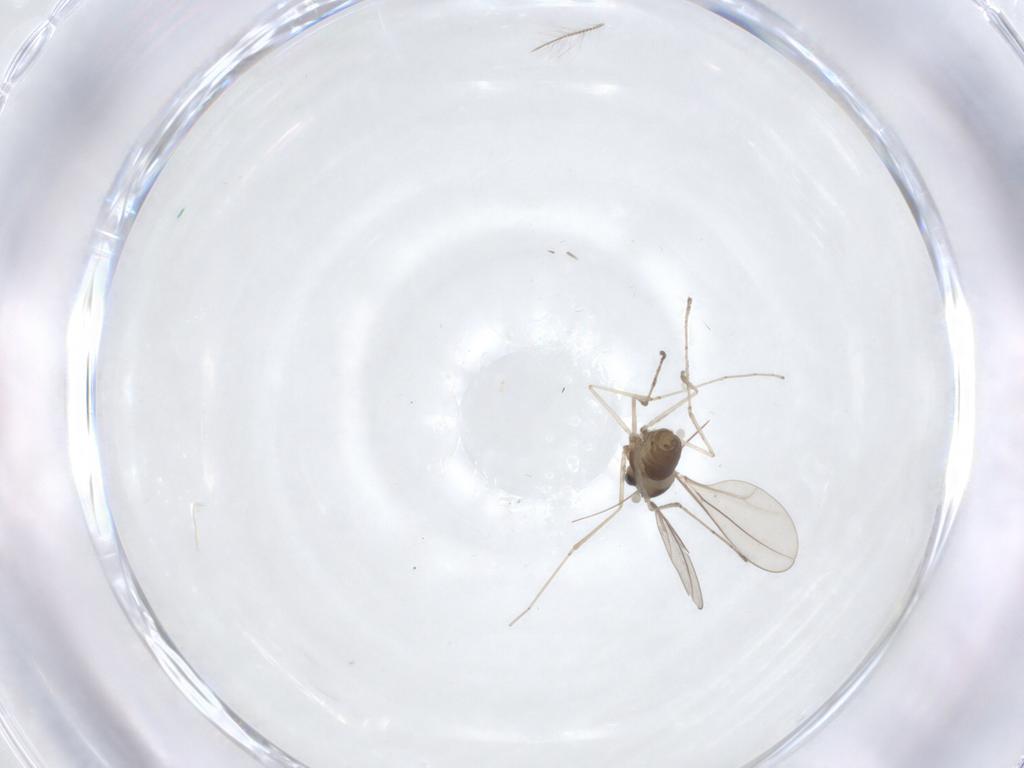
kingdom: Animalia
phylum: Arthropoda
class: Insecta
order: Diptera
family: Cecidomyiidae
